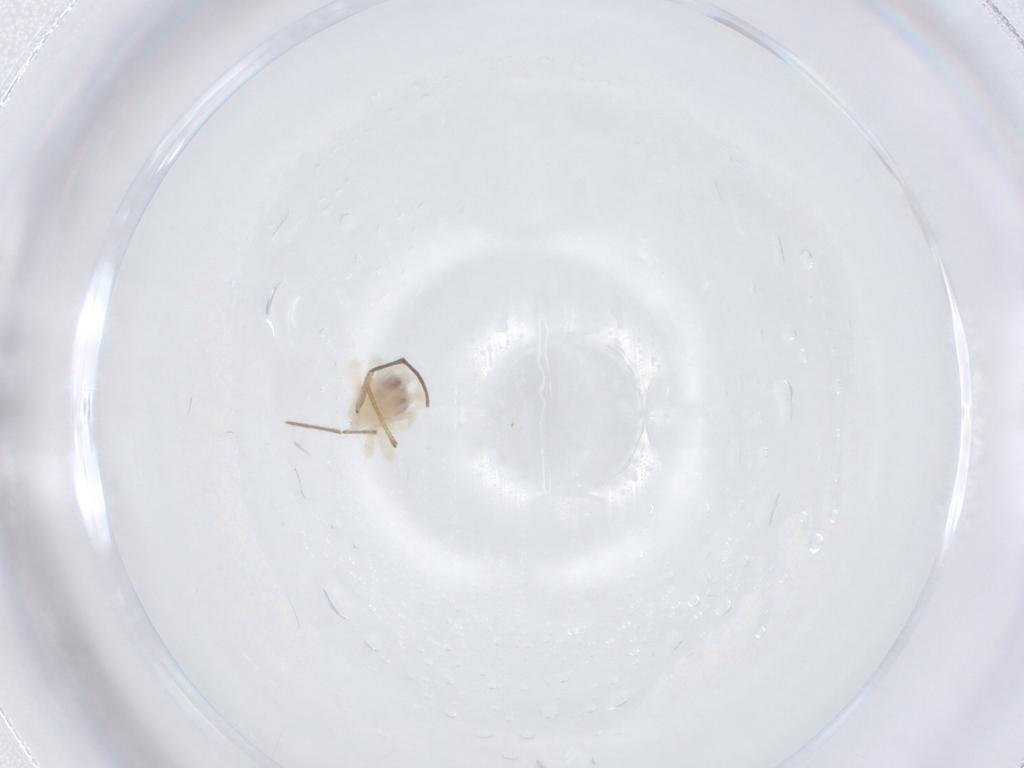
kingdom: Animalia
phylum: Arthropoda
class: Arachnida
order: Trombidiformes
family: Anystidae
